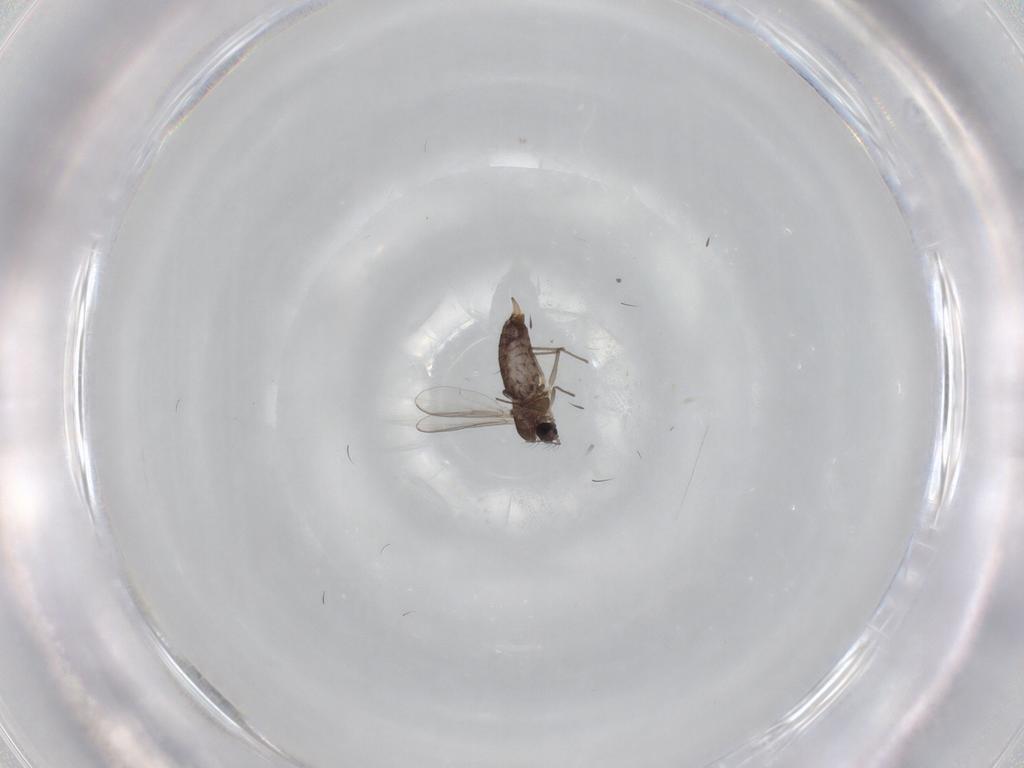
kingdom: Animalia
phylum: Arthropoda
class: Insecta
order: Diptera
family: Chironomidae
